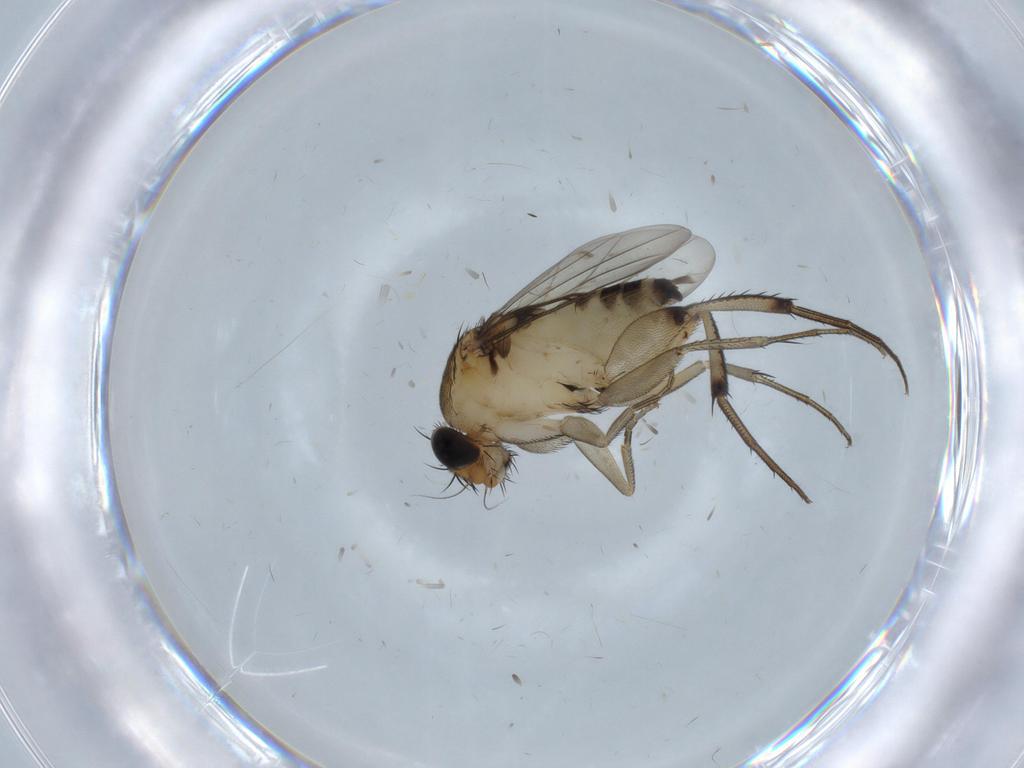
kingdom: Animalia
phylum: Arthropoda
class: Insecta
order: Diptera
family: Phoridae
